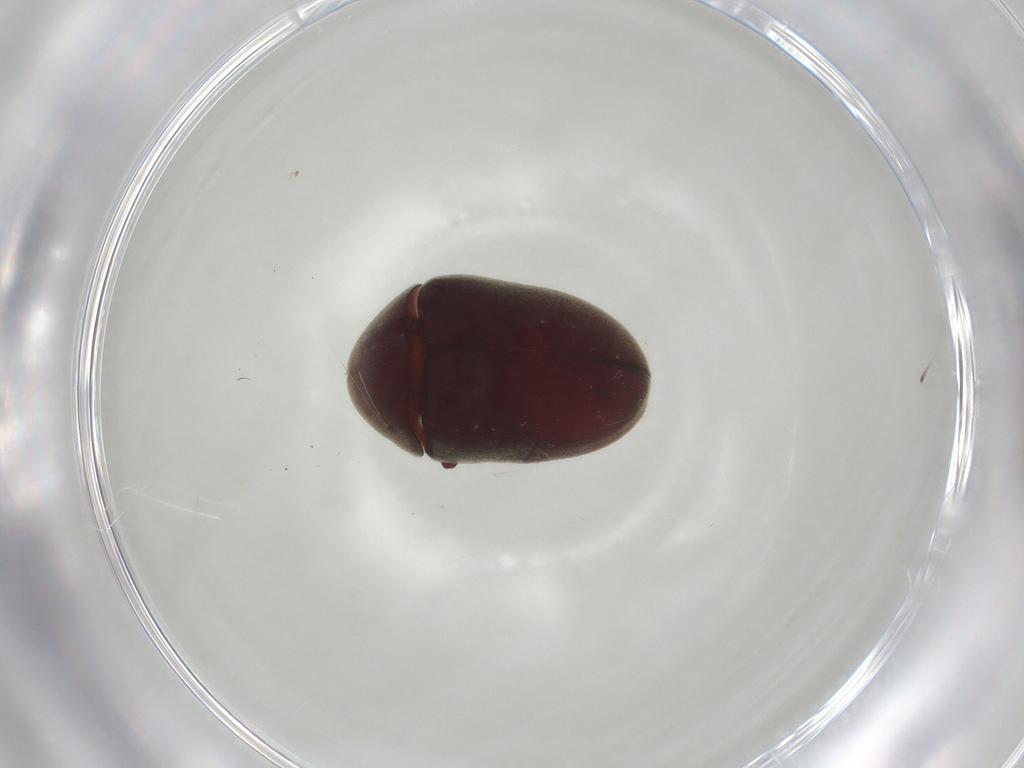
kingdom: Animalia
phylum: Arthropoda
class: Insecta
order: Coleoptera
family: Anobiidae
